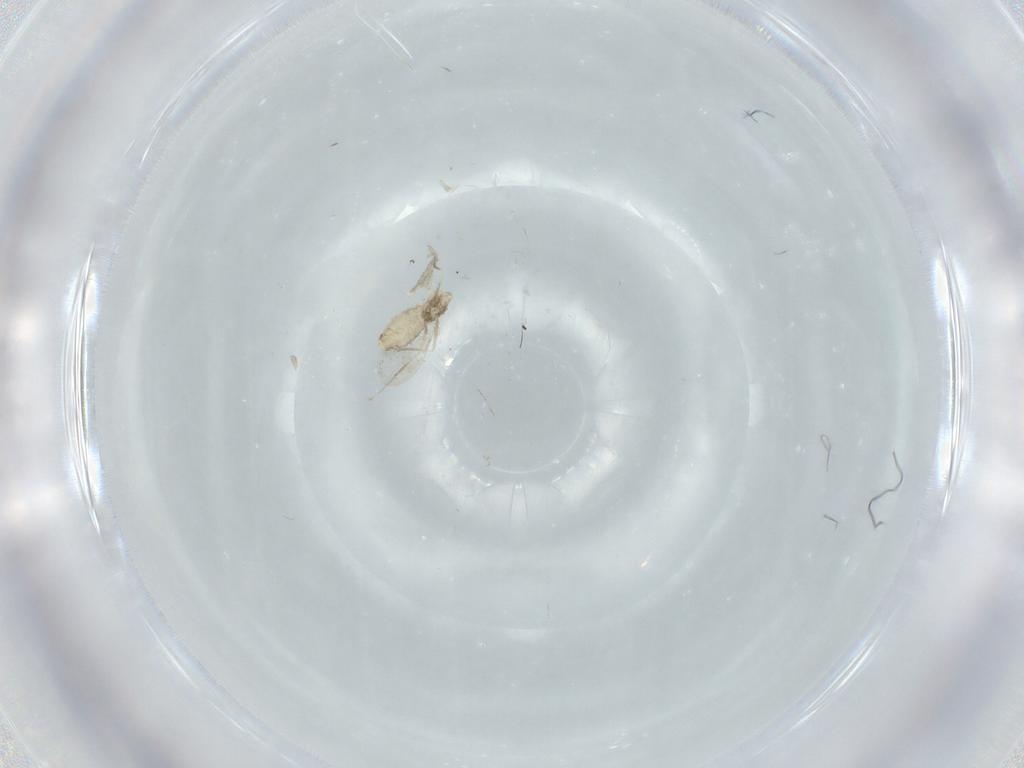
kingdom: Animalia
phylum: Arthropoda
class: Insecta
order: Diptera
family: Cecidomyiidae
